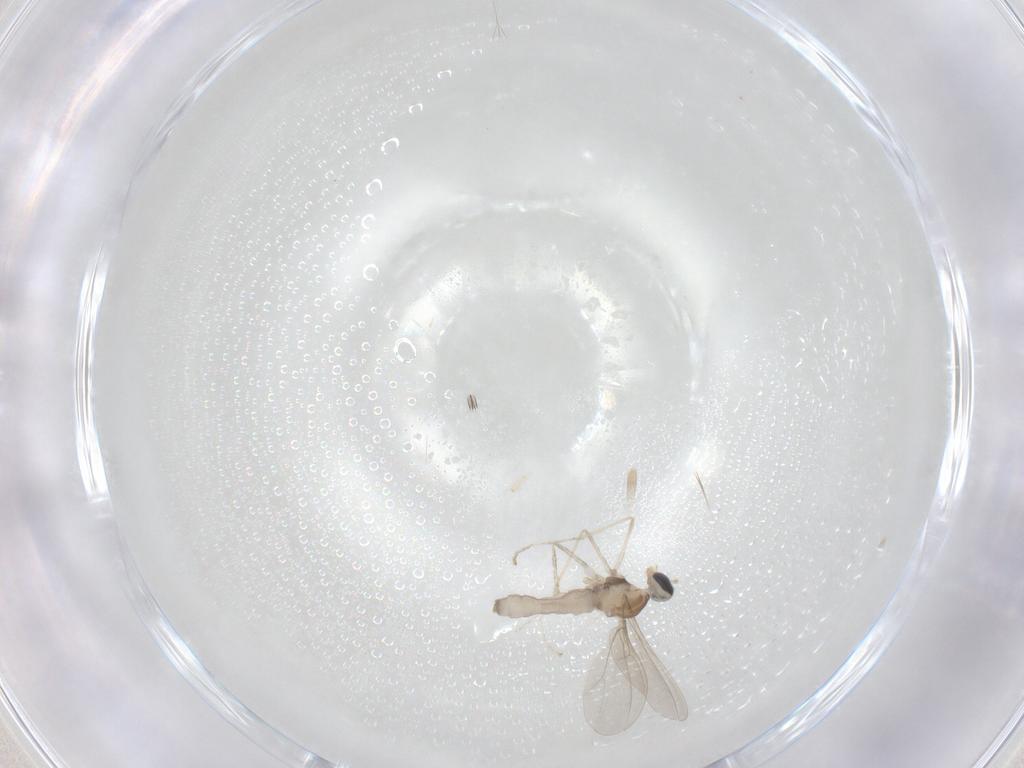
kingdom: Animalia
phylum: Arthropoda
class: Insecta
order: Diptera
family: Cecidomyiidae
